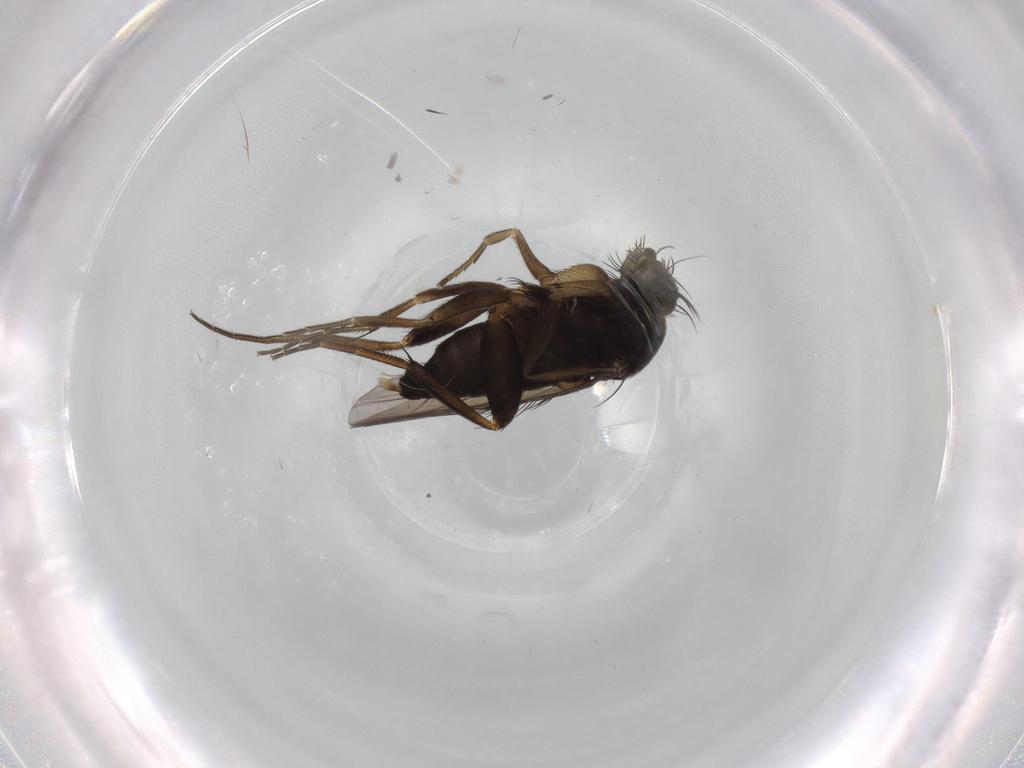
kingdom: Animalia
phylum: Arthropoda
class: Insecta
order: Diptera
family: Phoridae
